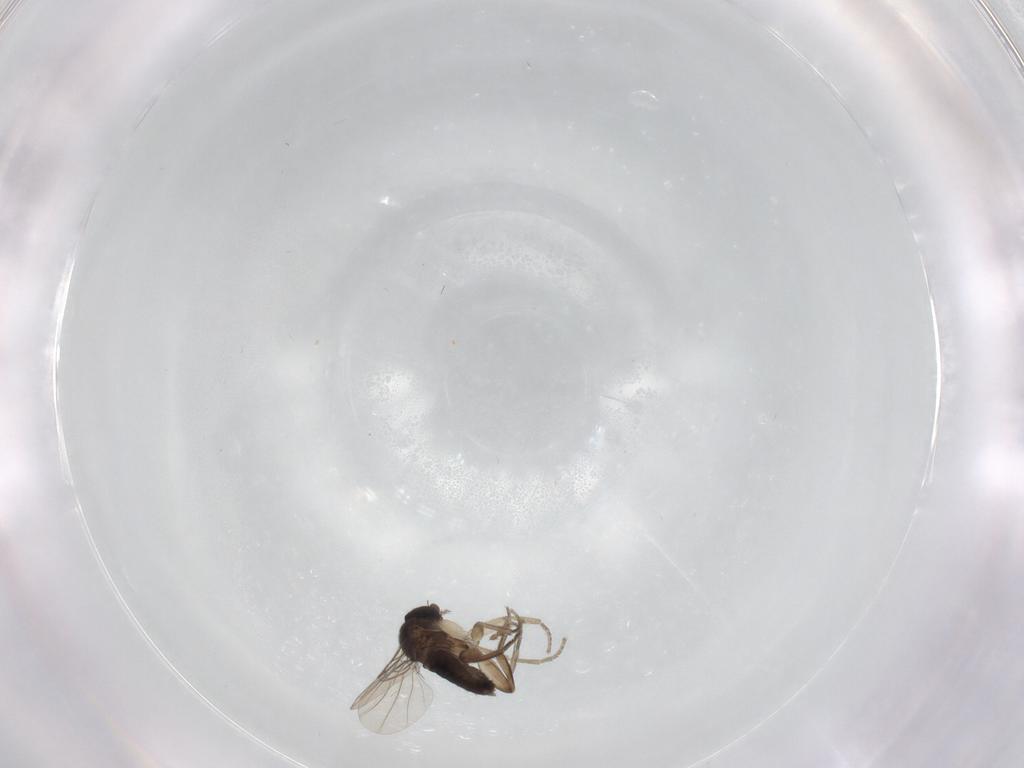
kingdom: Animalia
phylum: Arthropoda
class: Insecta
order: Diptera
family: Phoridae
